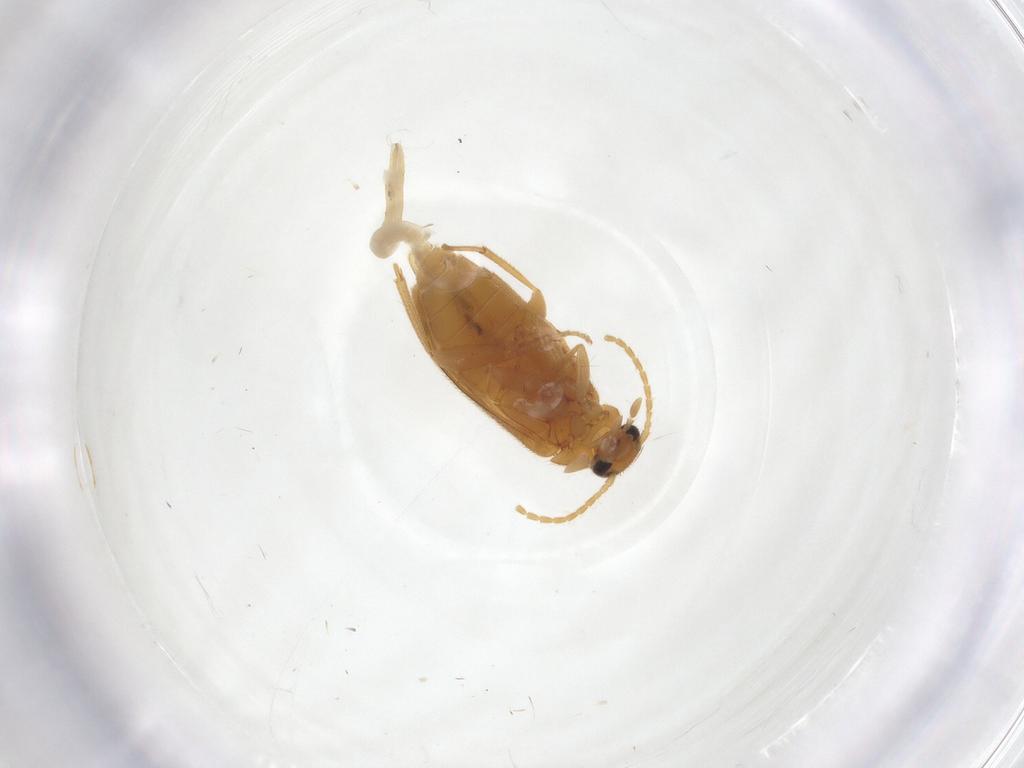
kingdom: Animalia
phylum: Arthropoda
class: Insecta
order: Coleoptera
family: Scraptiidae
